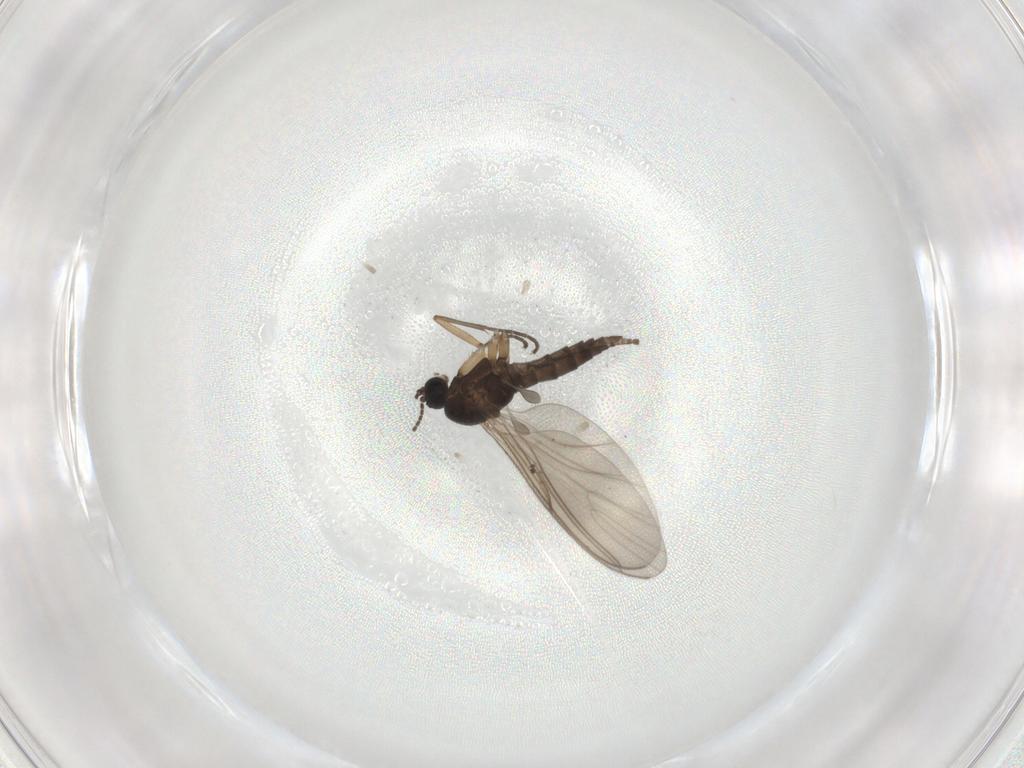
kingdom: Animalia
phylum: Arthropoda
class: Insecta
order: Diptera
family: Sciaridae
